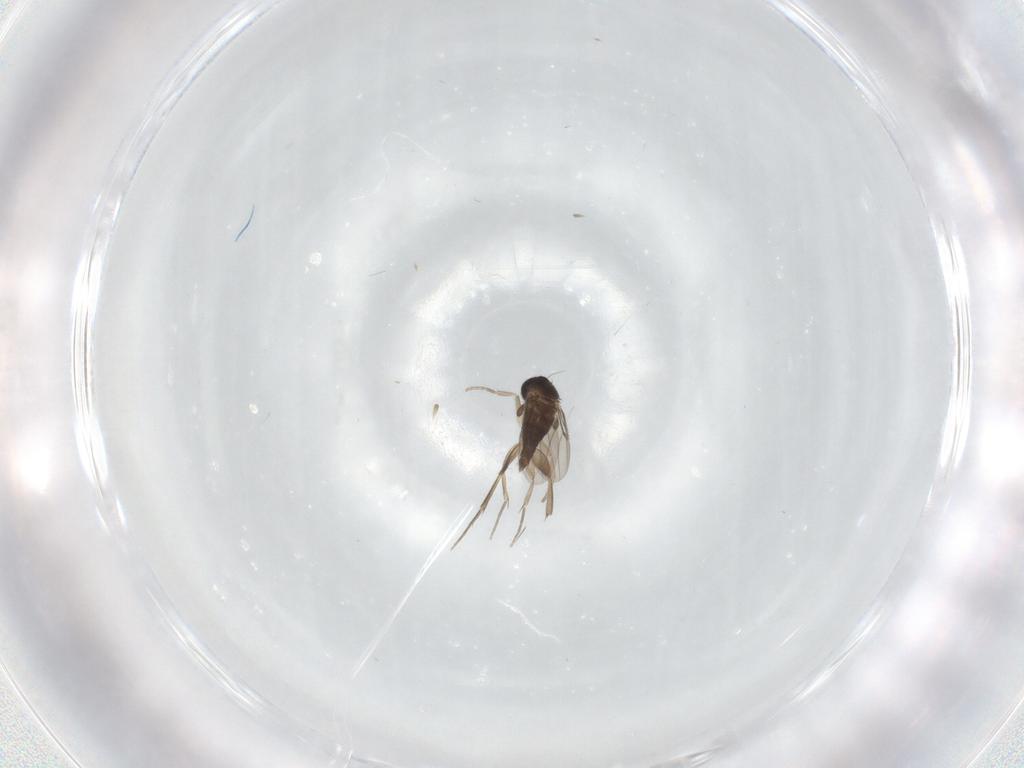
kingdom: Animalia
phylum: Arthropoda
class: Insecta
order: Diptera
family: Phoridae
